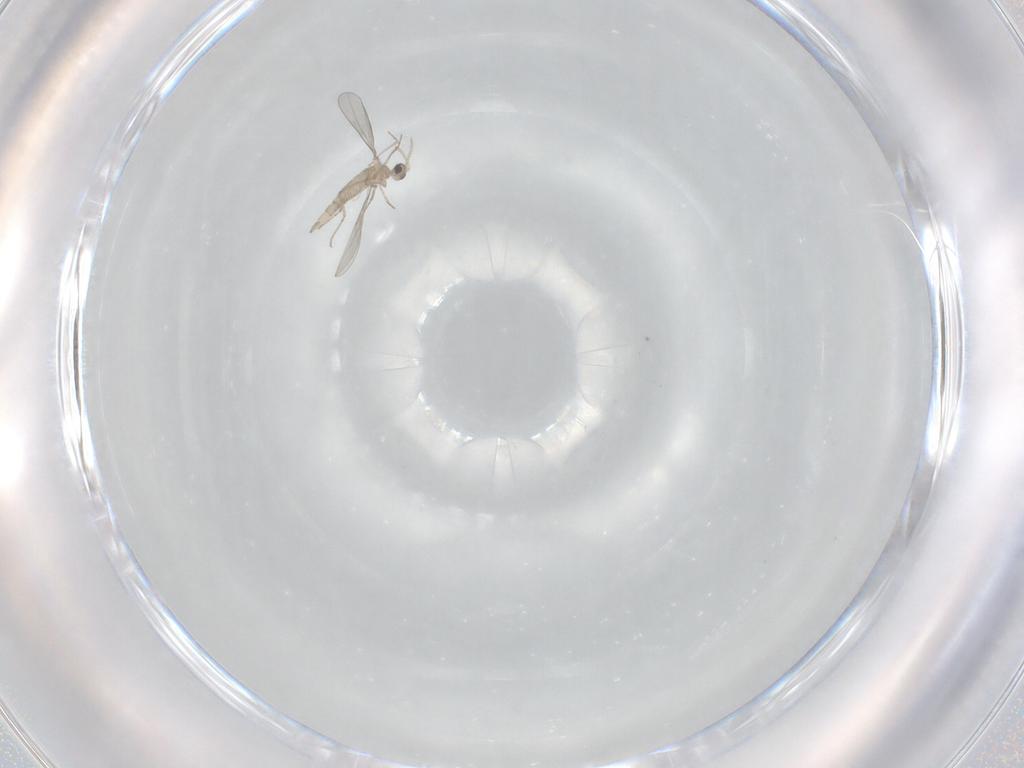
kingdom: Animalia
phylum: Arthropoda
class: Insecta
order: Diptera
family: Cecidomyiidae
